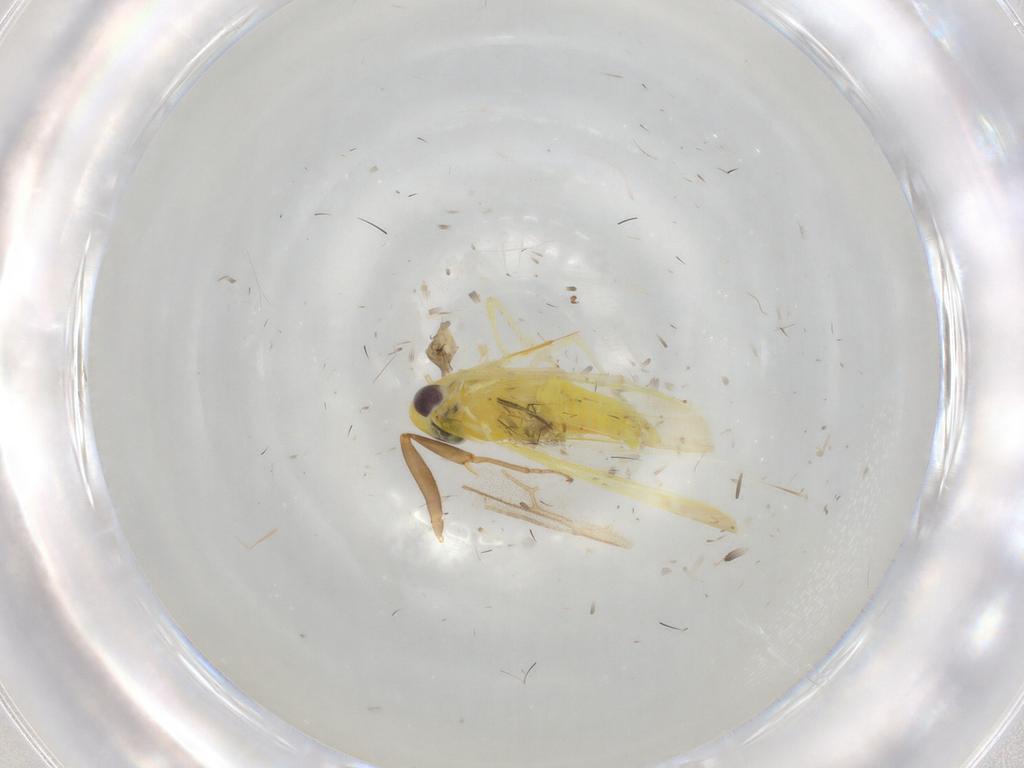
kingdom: Animalia
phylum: Arthropoda
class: Insecta
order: Hemiptera
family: Cicadellidae
